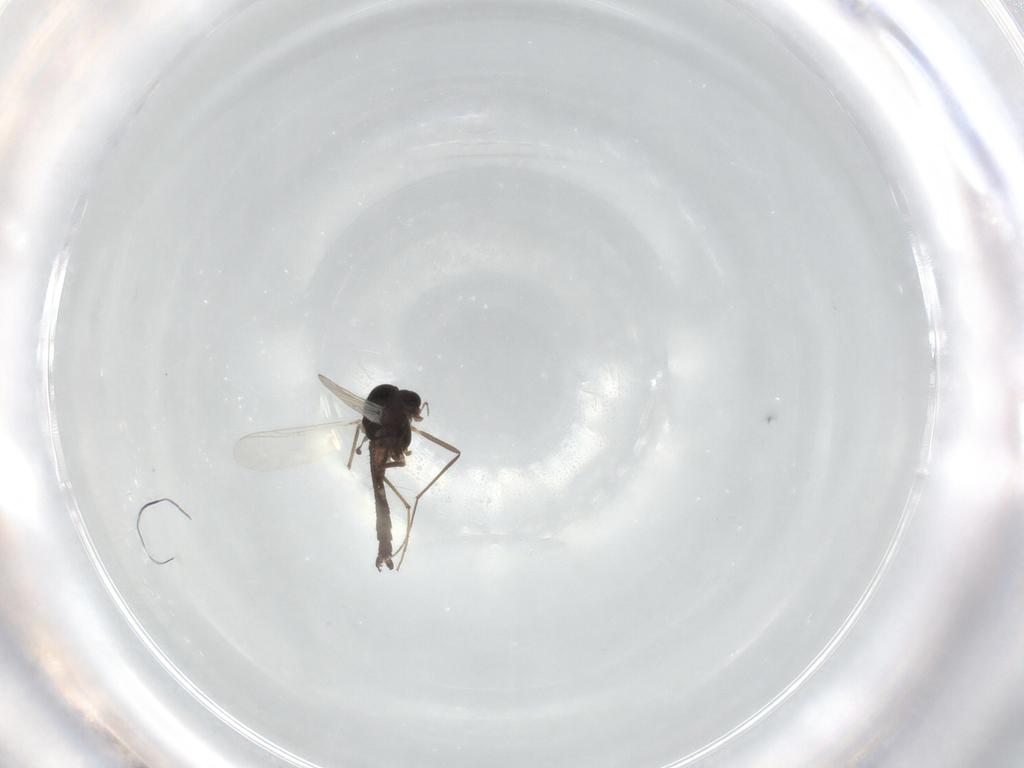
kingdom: Animalia
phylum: Arthropoda
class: Insecta
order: Diptera
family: Chironomidae
